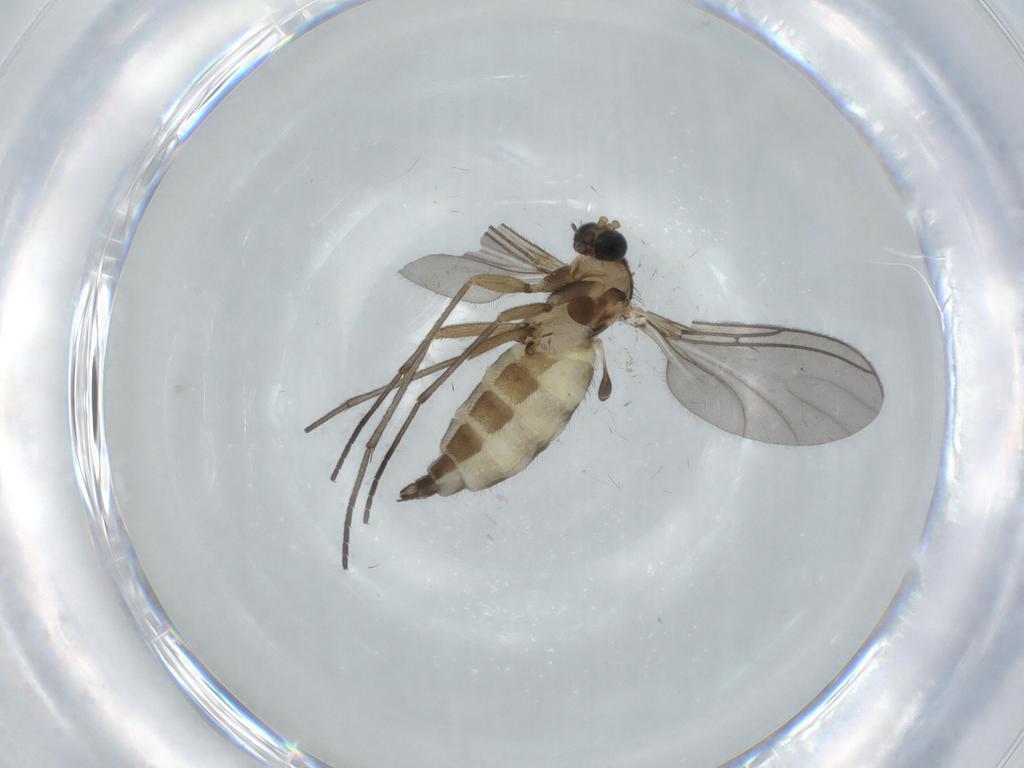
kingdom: Animalia
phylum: Arthropoda
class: Insecta
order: Diptera
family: Sciaridae
